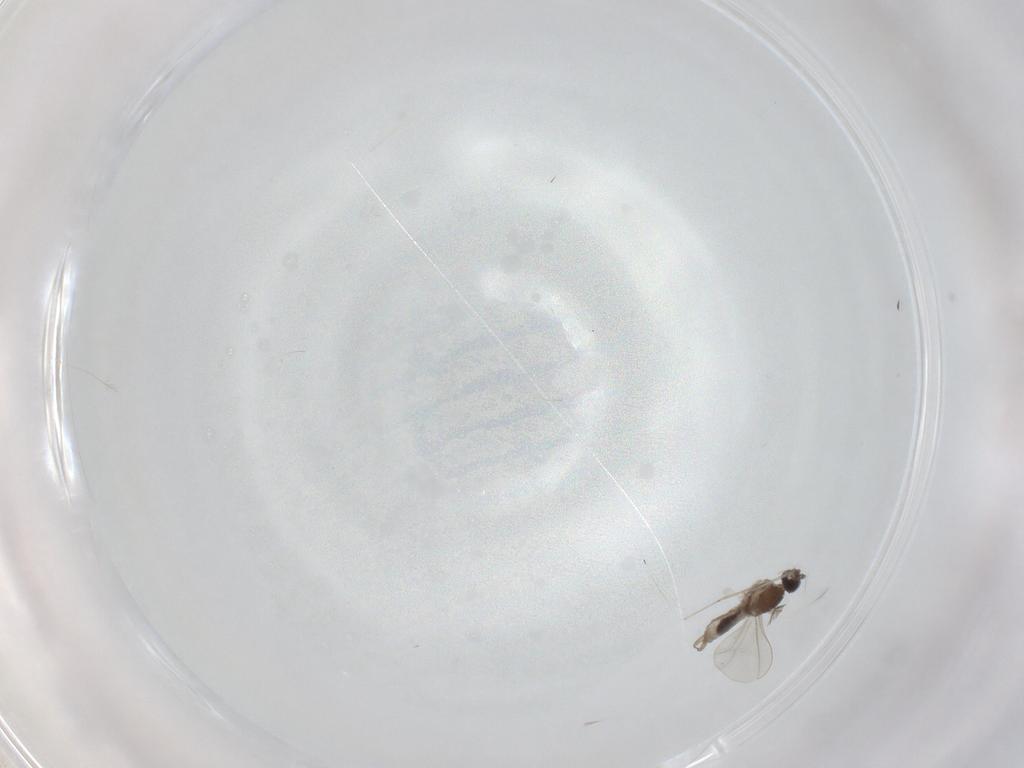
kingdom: Animalia
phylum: Arthropoda
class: Insecta
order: Diptera
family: Cecidomyiidae
